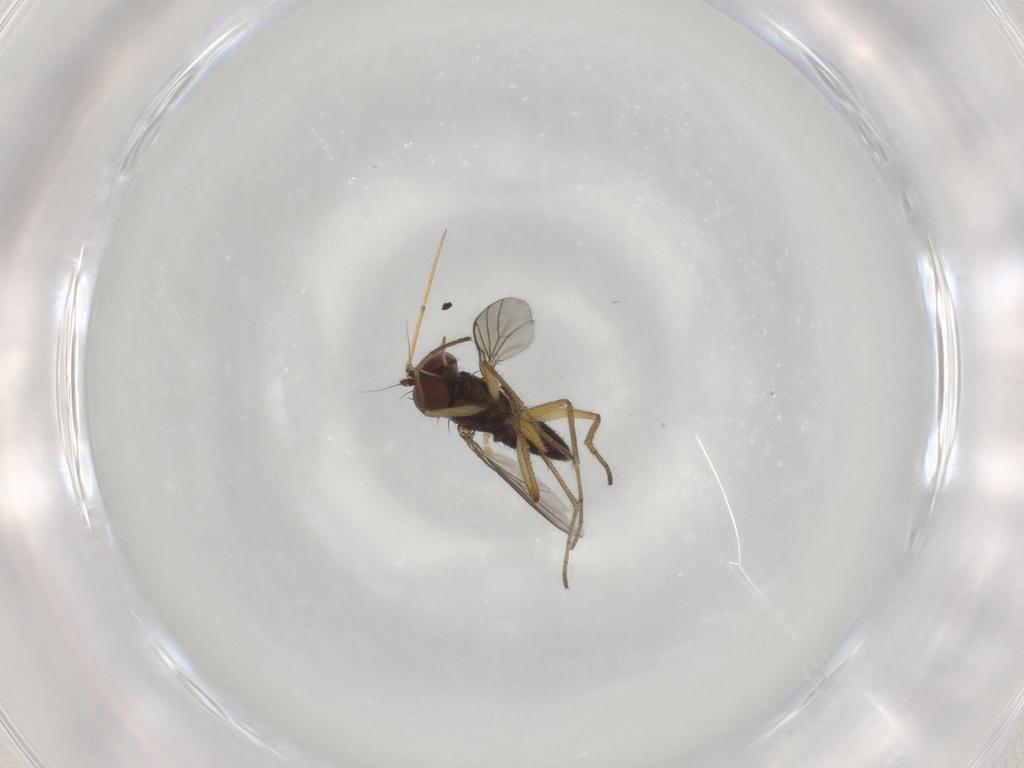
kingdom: Animalia
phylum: Arthropoda
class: Insecta
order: Diptera
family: Dolichopodidae
